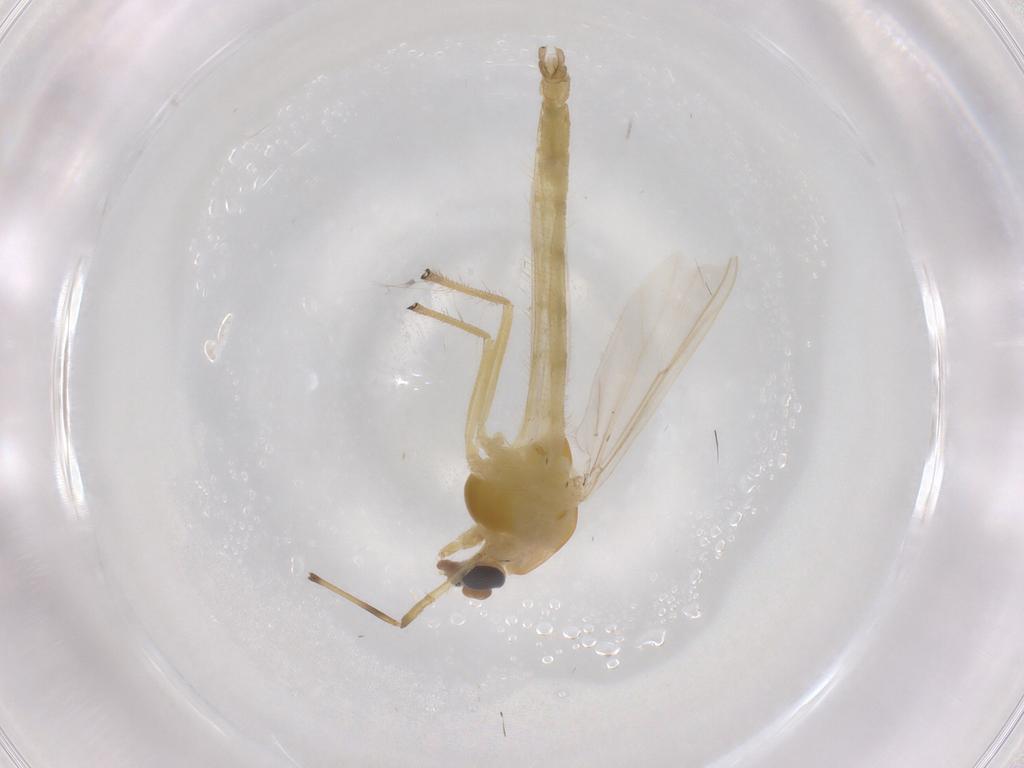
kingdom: Animalia
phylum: Arthropoda
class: Insecta
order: Diptera
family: Chironomidae
